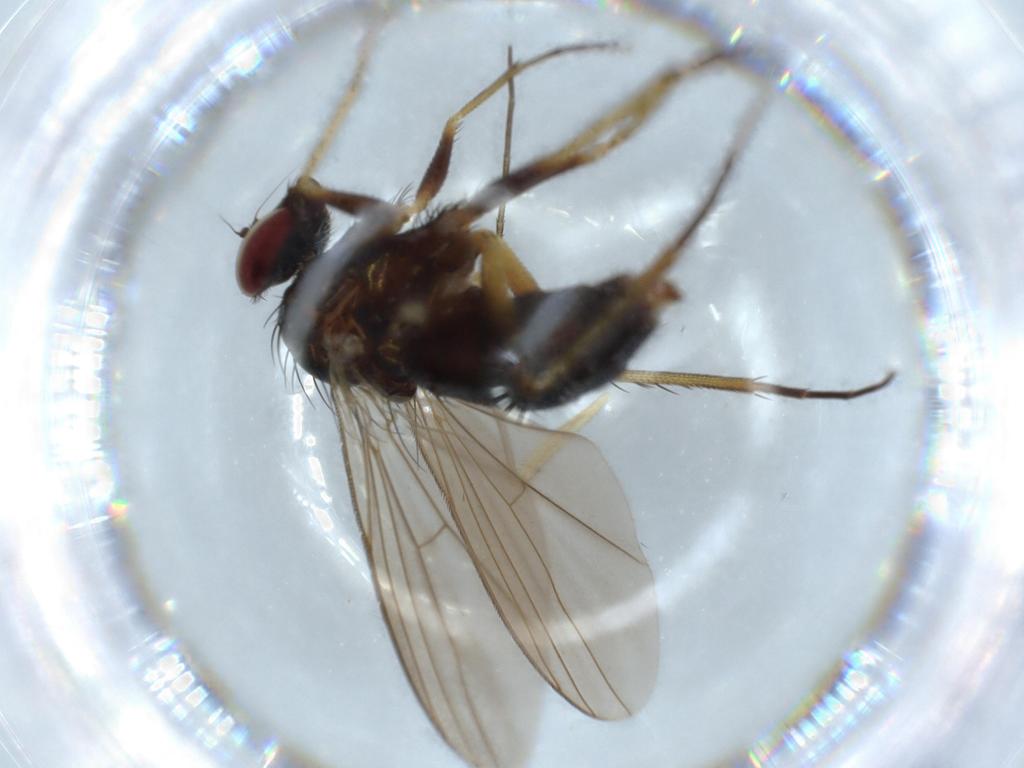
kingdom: Animalia
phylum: Arthropoda
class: Insecta
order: Diptera
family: Dolichopodidae
